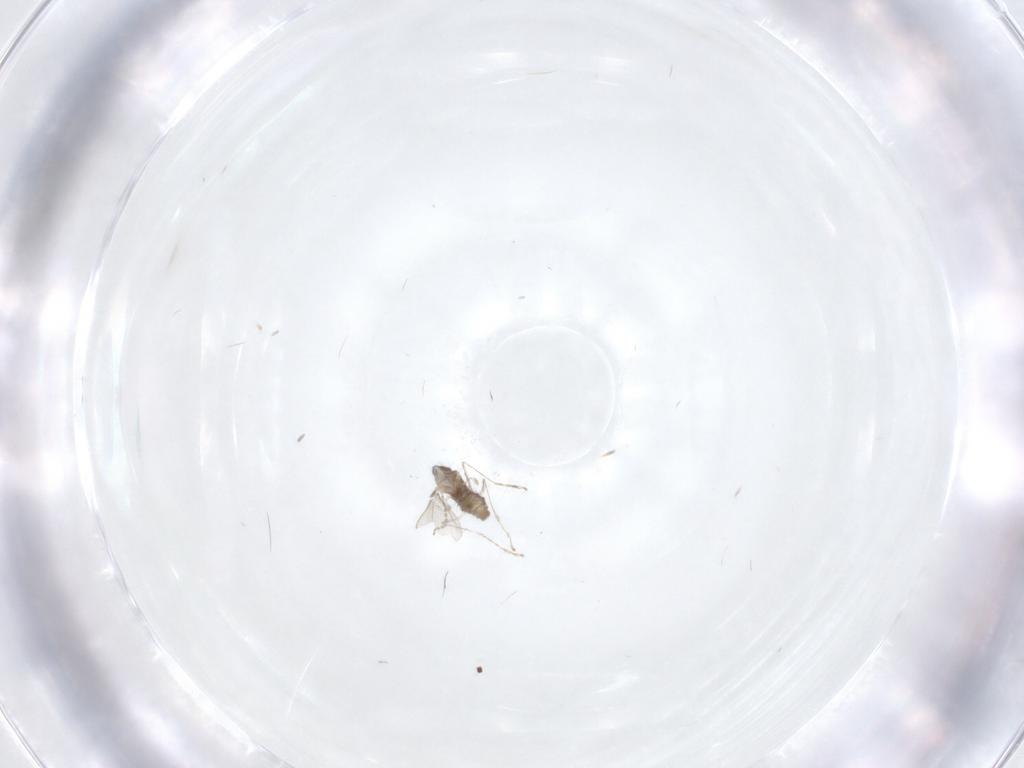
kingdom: Animalia
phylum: Arthropoda
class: Insecta
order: Diptera
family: Cecidomyiidae
